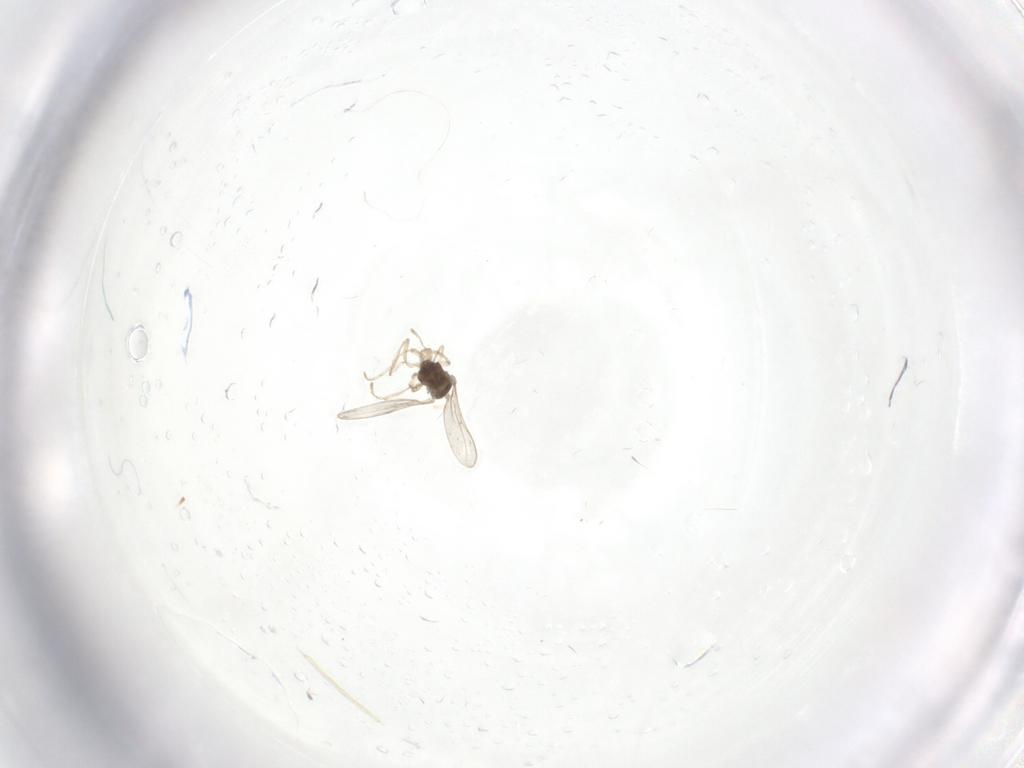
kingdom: Animalia
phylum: Arthropoda
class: Insecta
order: Diptera
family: Cecidomyiidae
